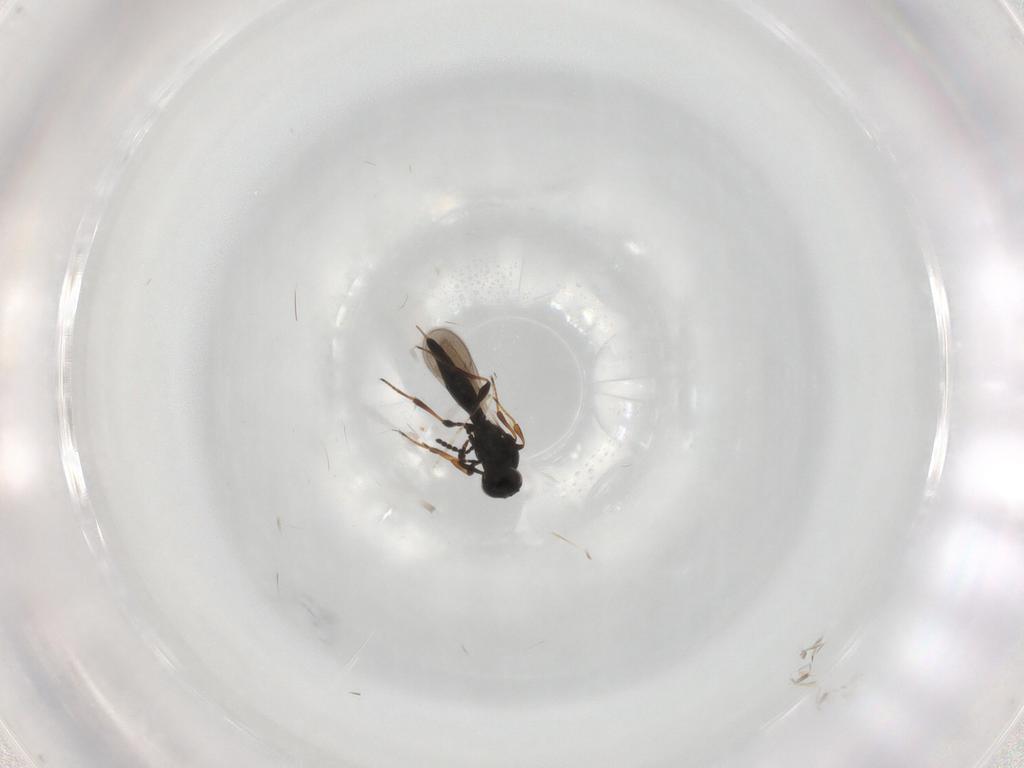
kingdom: Animalia
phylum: Arthropoda
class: Insecta
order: Hymenoptera
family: Platygastridae
